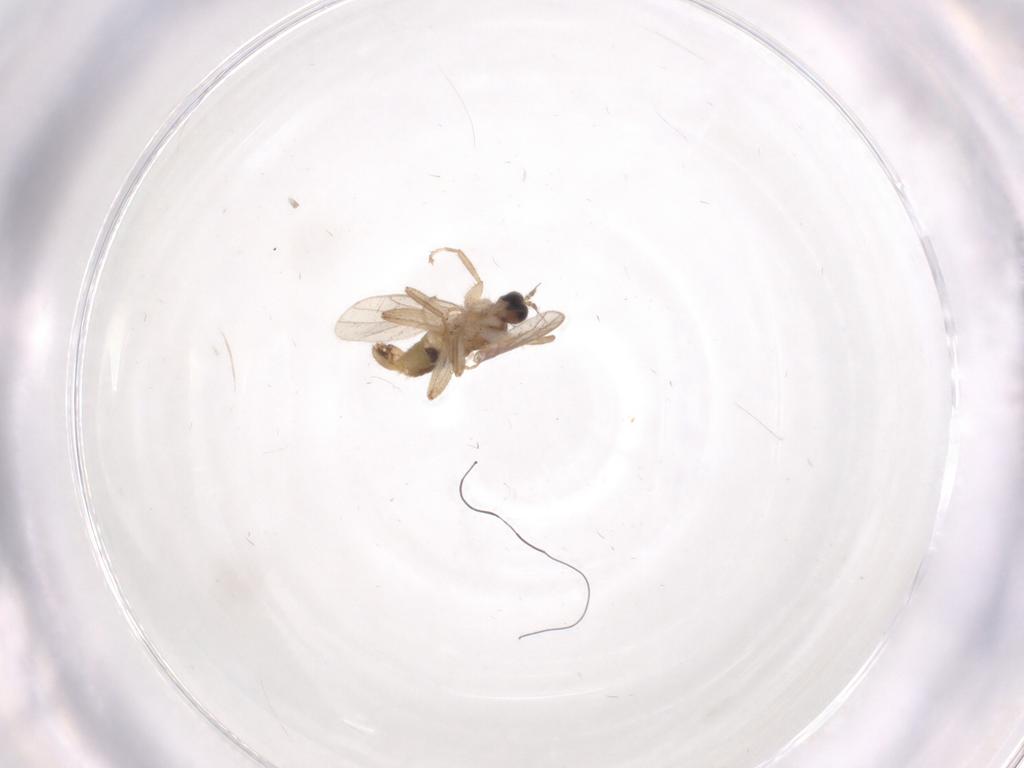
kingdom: Animalia
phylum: Arthropoda
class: Insecta
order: Diptera
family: Hybotidae
